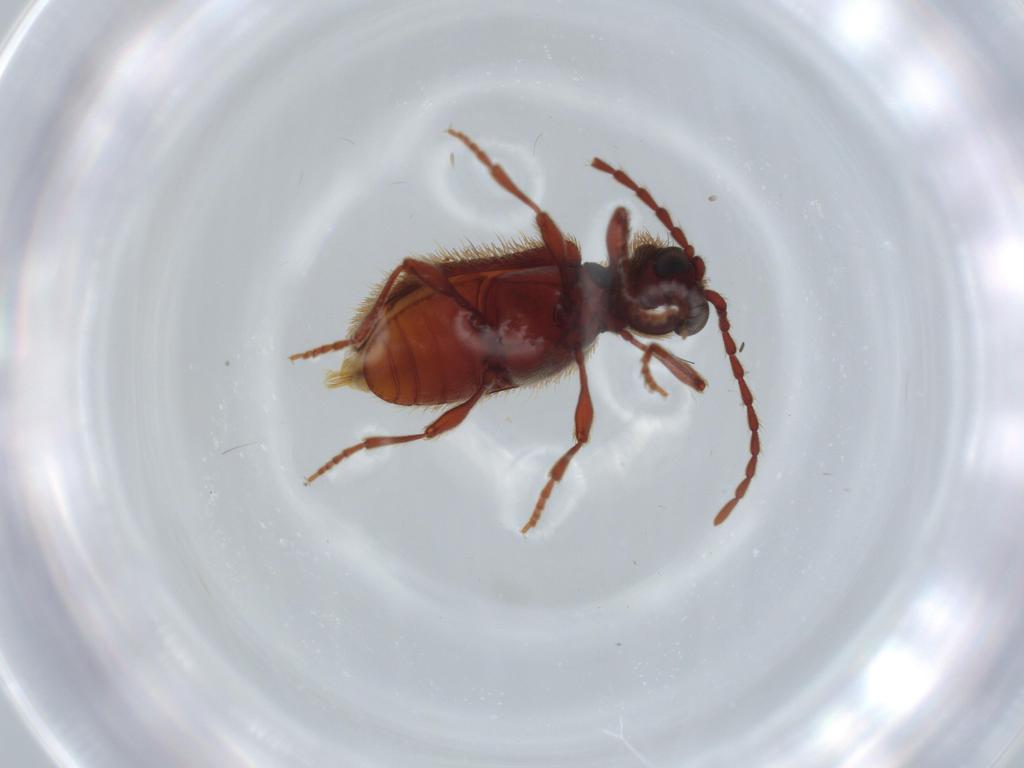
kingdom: Animalia
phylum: Arthropoda
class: Insecta
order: Coleoptera
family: Ptinidae
